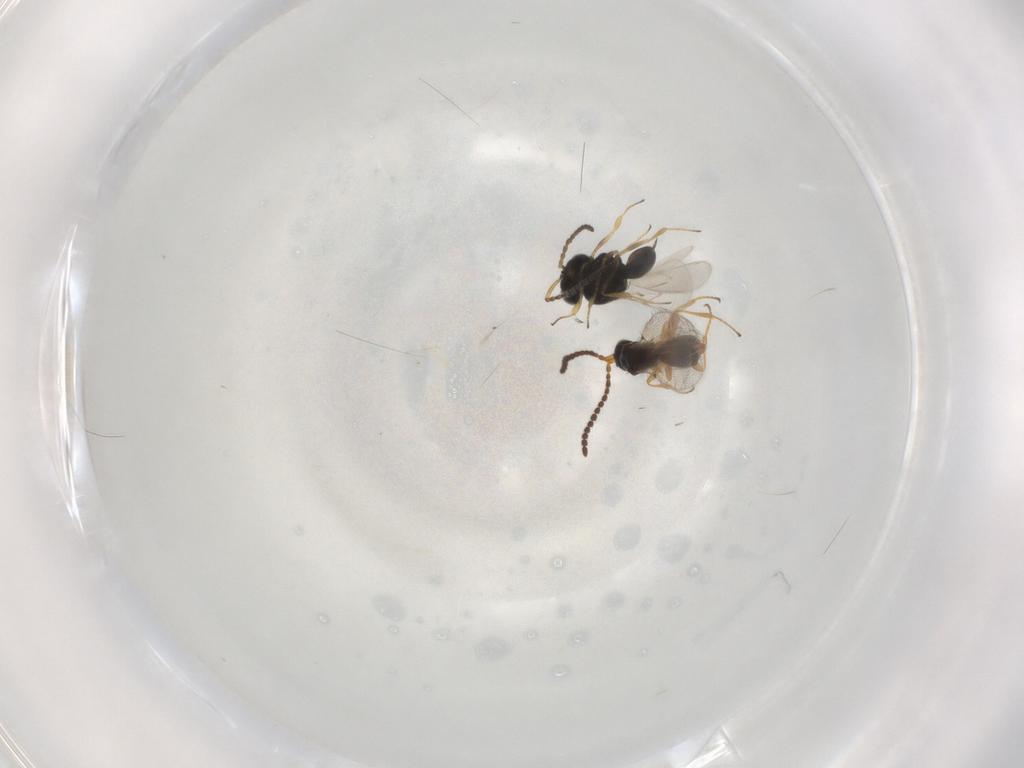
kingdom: Animalia
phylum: Arthropoda
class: Insecta
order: Hymenoptera
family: Scelionidae
